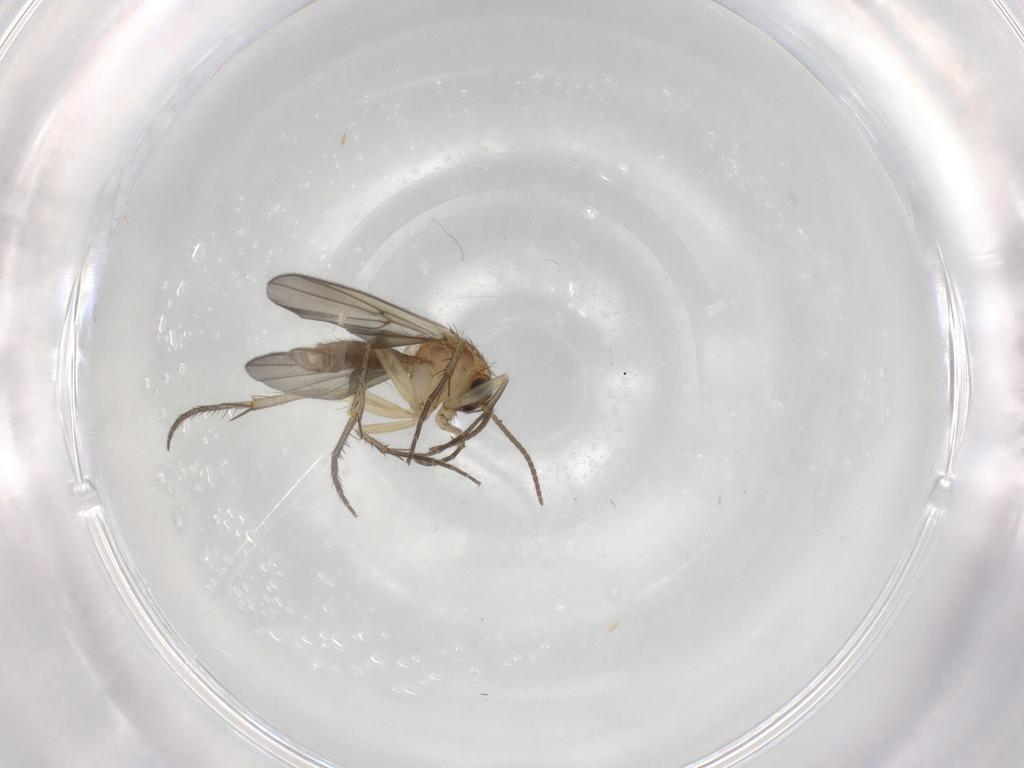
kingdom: Animalia
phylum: Arthropoda
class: Insecta
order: Diptera
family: Mycetophilidae
